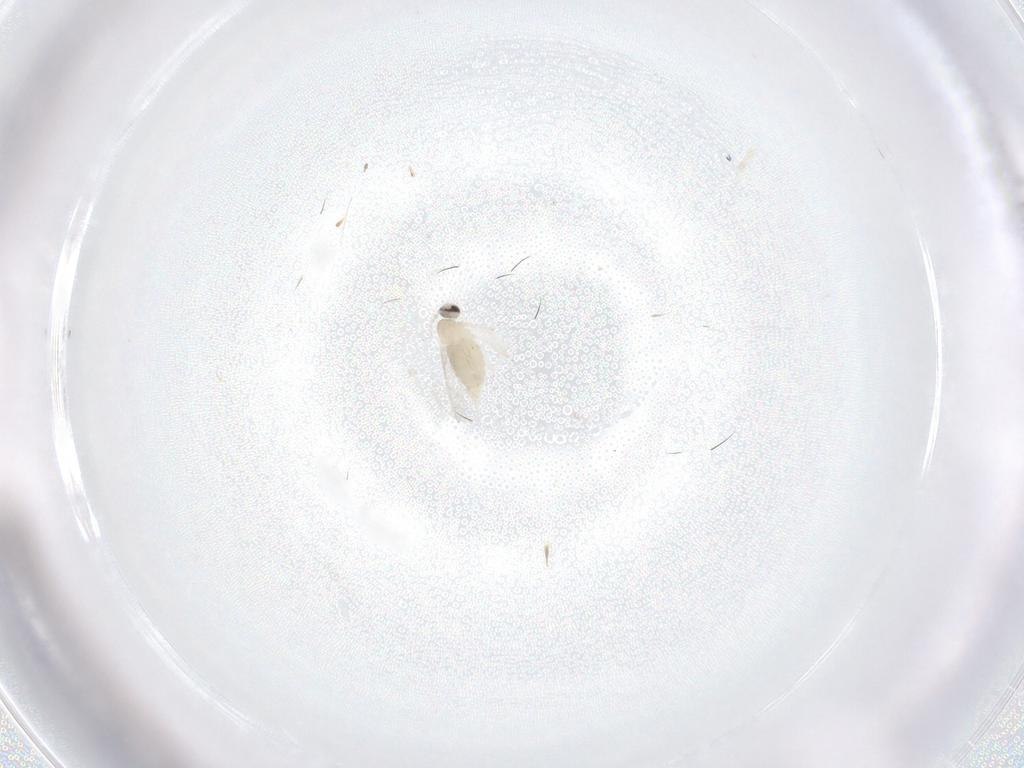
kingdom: Animalia
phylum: Arthropoda
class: Insecta
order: Diptera
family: Cecidomyiidae
